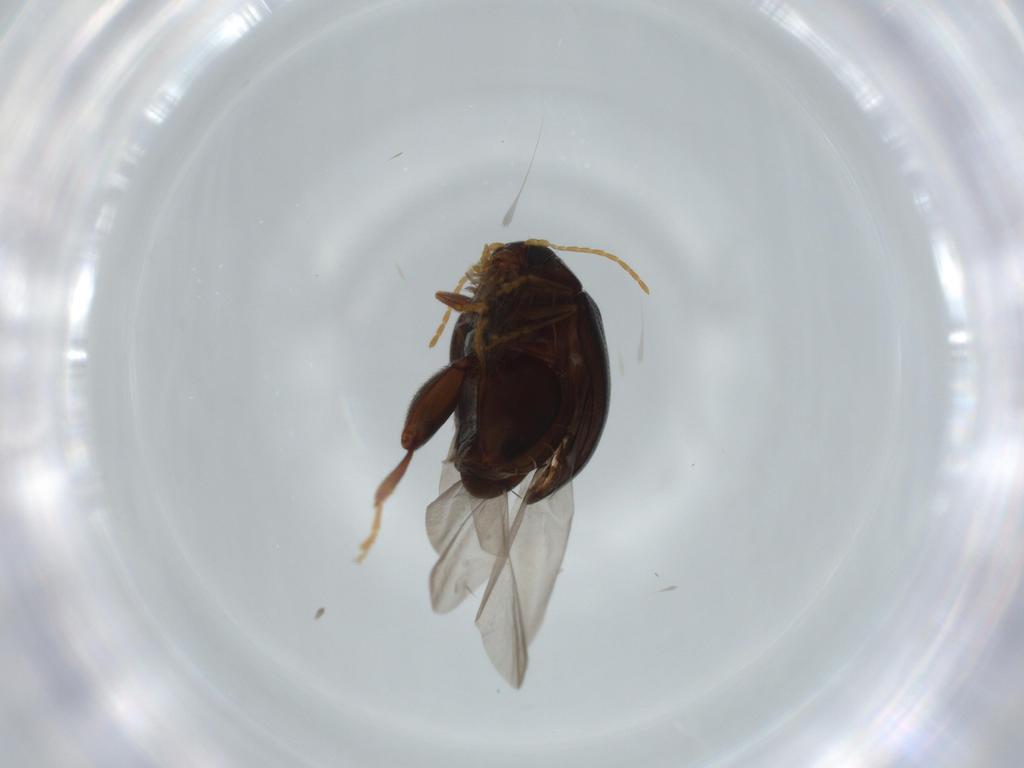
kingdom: Animalia
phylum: Arthropoda
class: Insecta
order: Coleoptera
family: Chrysomelidae
